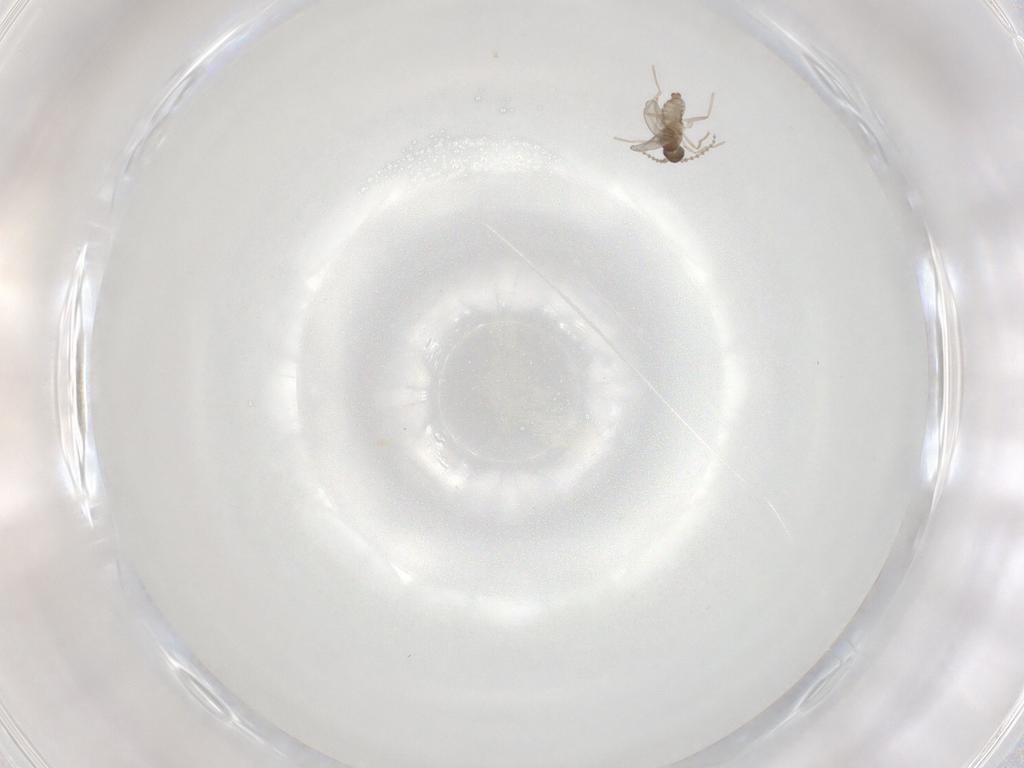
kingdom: Animalia
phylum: Arthropoda
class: Insecta
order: Diptera
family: Cecidomyiidae
